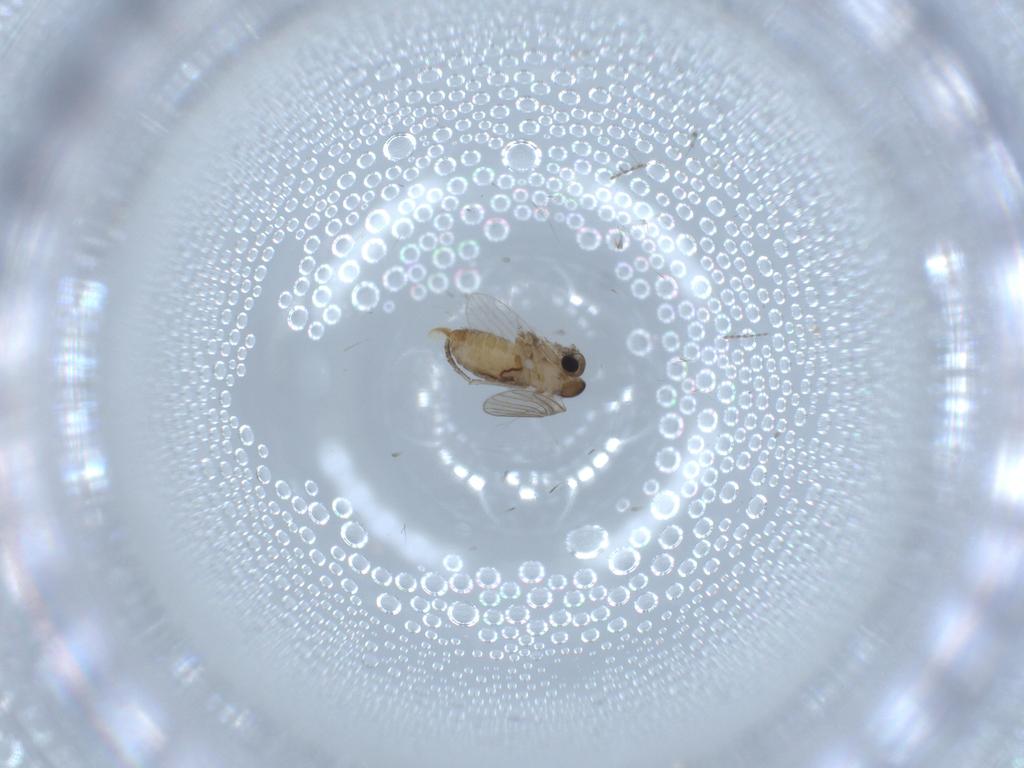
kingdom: Animalia
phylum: Arthropoda
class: Insecta
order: Diptera
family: Hybotidae
